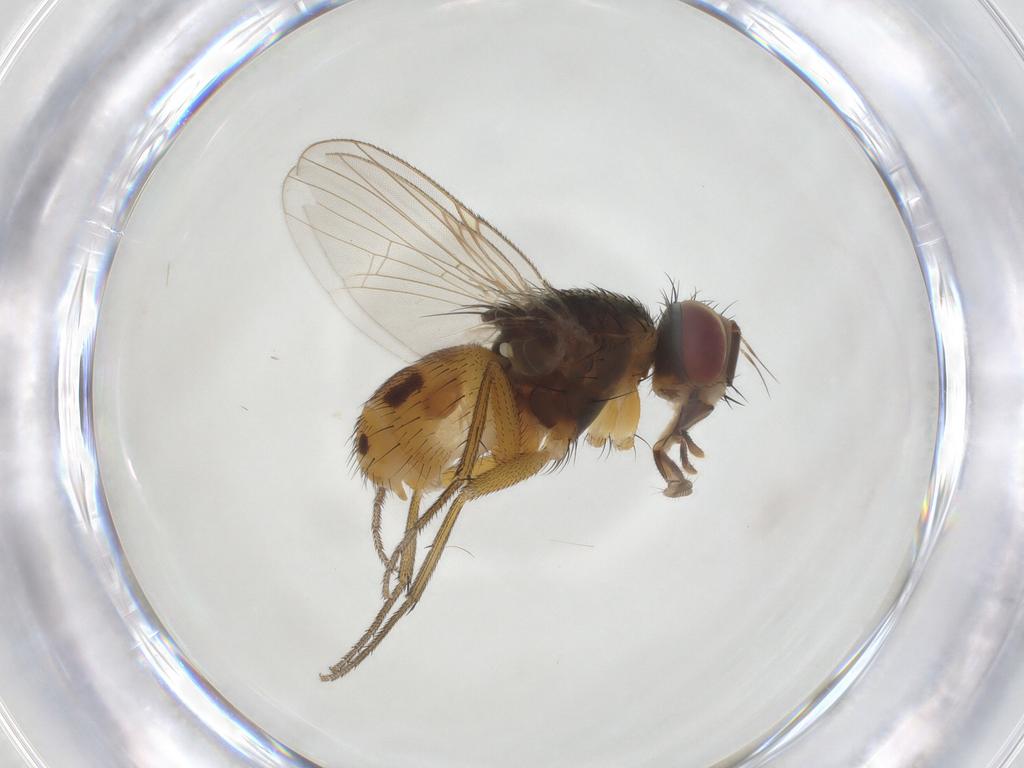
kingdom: Animalia
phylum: Arthropoda
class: Insecta
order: Diptera
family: Muscidae
